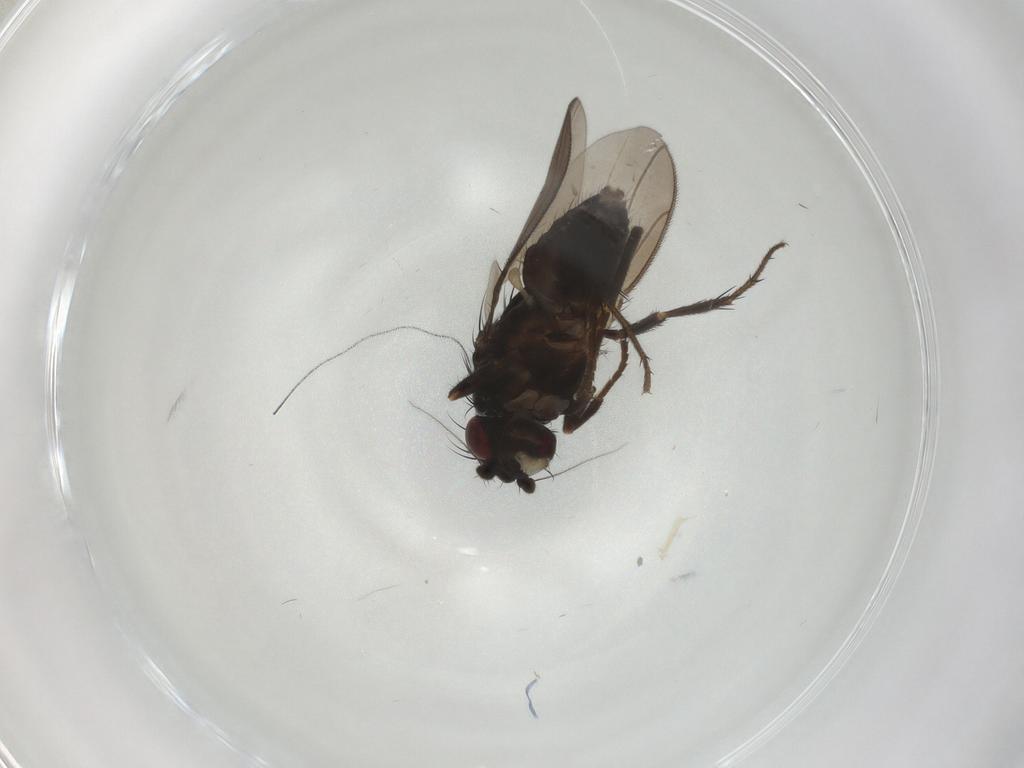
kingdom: Animalia
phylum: Arthropoda
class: Insecta
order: Diptera
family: Sphaeroceridae
